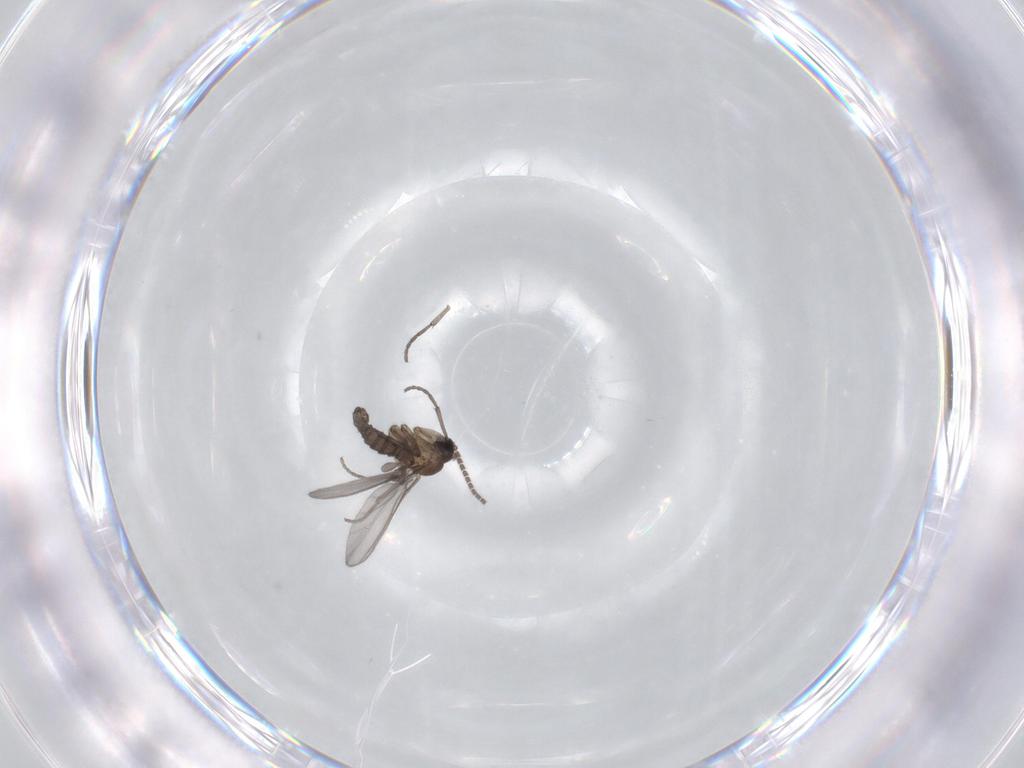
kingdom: Animalia
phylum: Arthropoda
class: Insecta
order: Diptera
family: Phoridae
